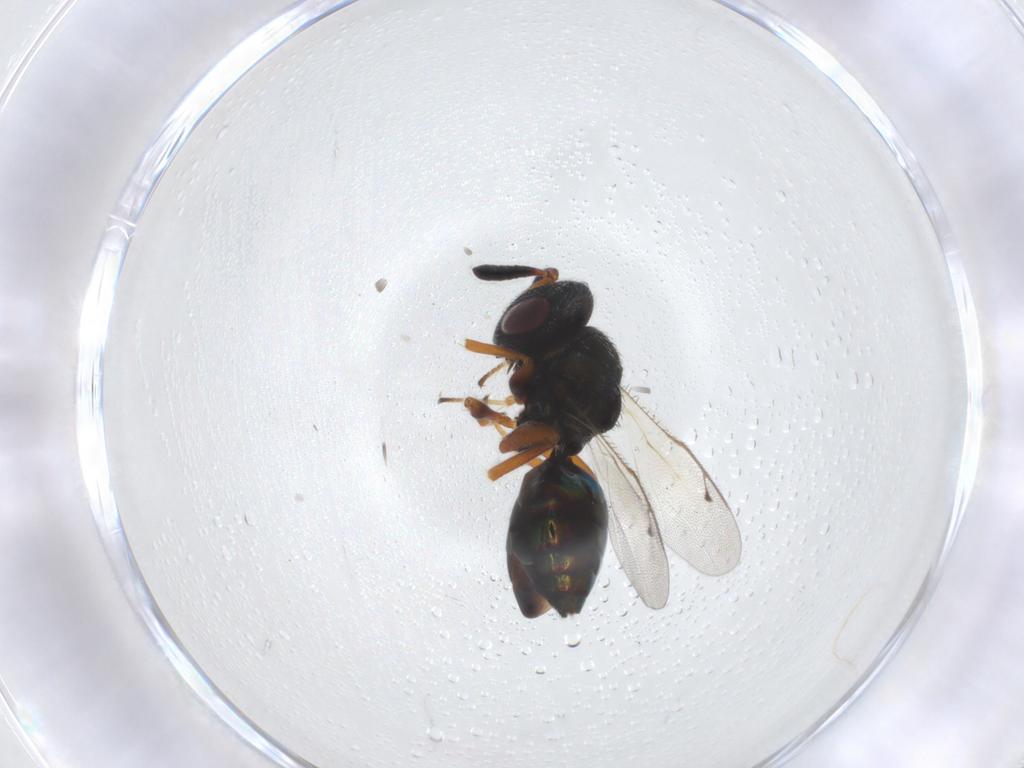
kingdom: Animalia
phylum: Arthropoda
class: Insecta
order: Hymenoptera
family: Pteromalidae
